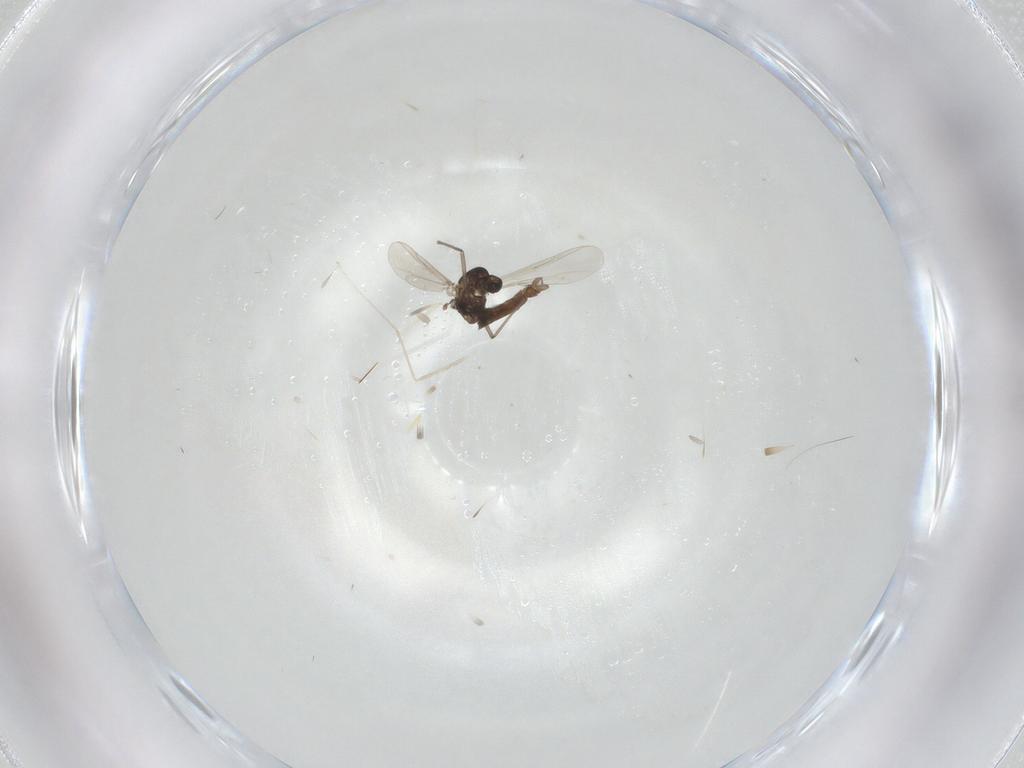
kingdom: Animalia
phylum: Arthropoda
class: Insecta
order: Diptera
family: Chironomidae
